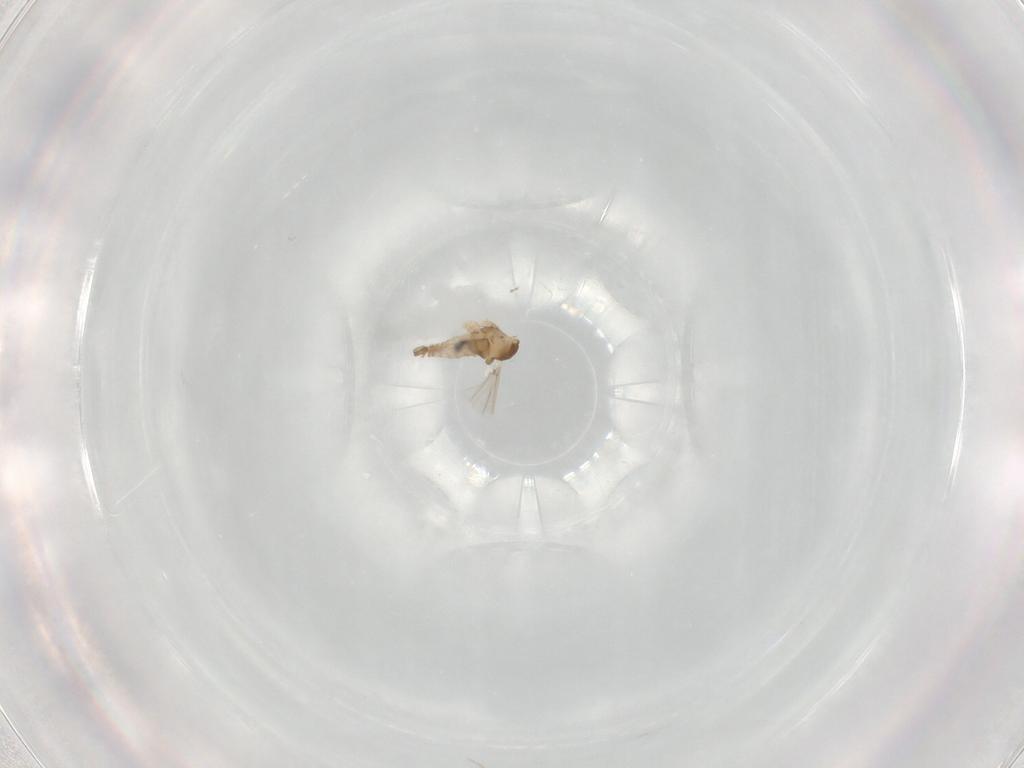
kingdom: Animalia
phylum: Arthropoda
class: Insecta
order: Diptera
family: Cecidomyiidae
